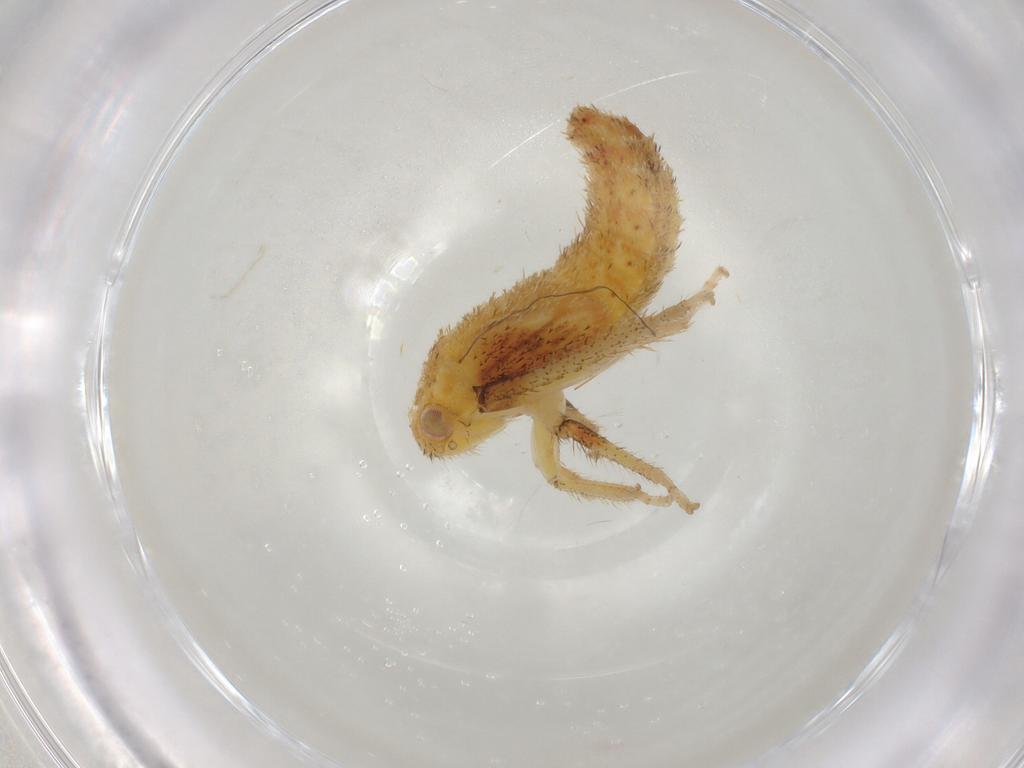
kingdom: Animalia
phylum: Arthropoda
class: Insecta
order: Hemiptera
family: Cicadellidae
